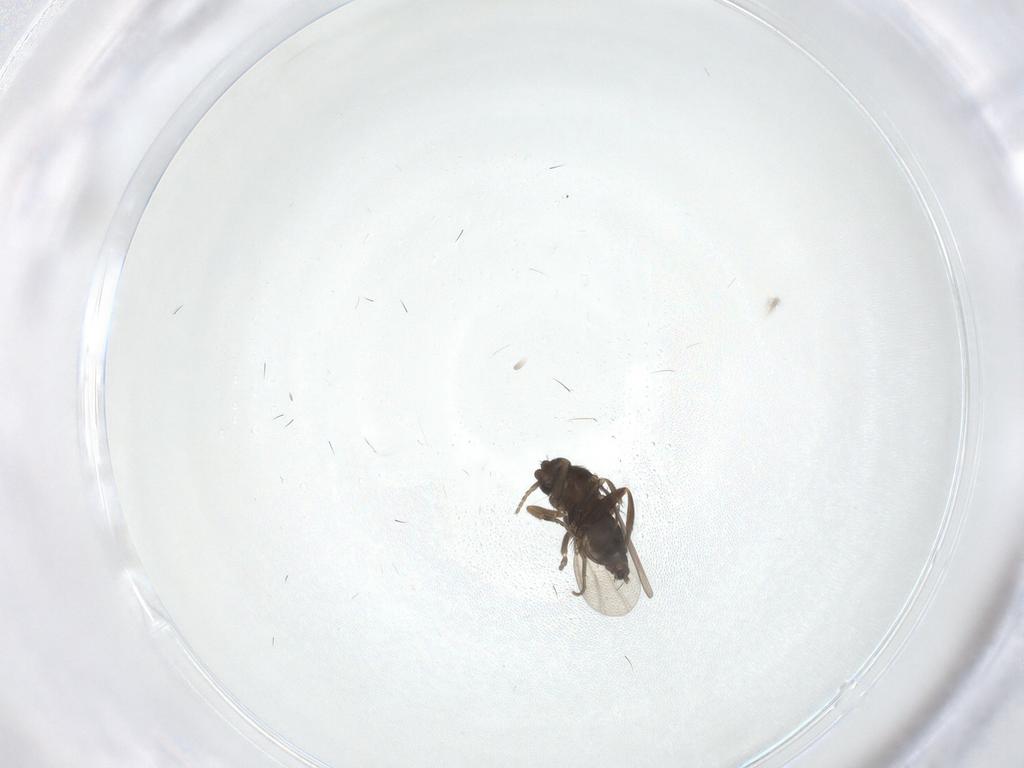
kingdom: Animalia
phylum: Arthropoda
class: Insecta
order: Diptera
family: Phoridae
